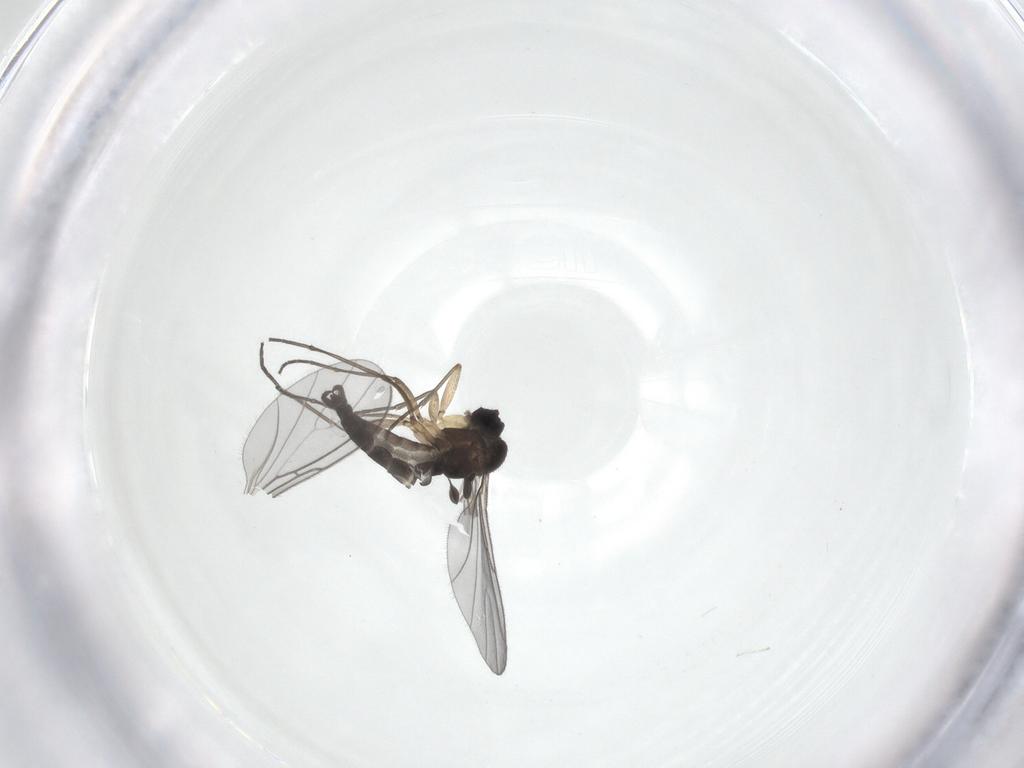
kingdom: Animalia
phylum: Arthropoda
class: Insecta
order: Diptera
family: Sciaridae
